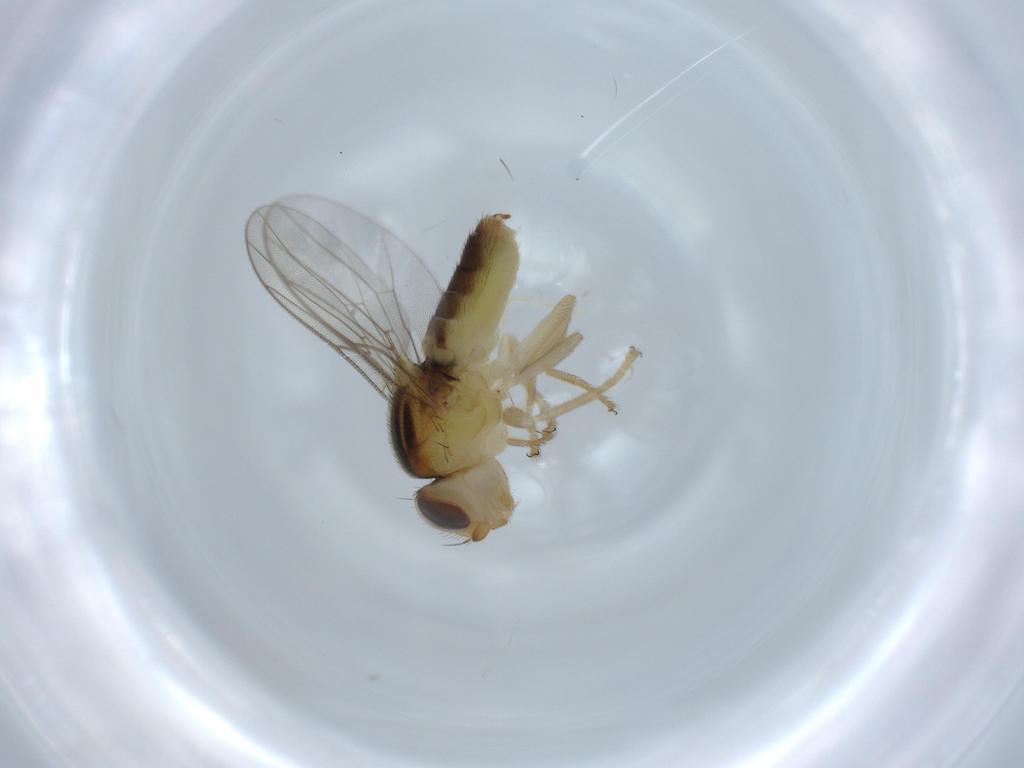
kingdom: Animalia
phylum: Arthropoda
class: Insecta
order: Diptera
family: Chloropidae
